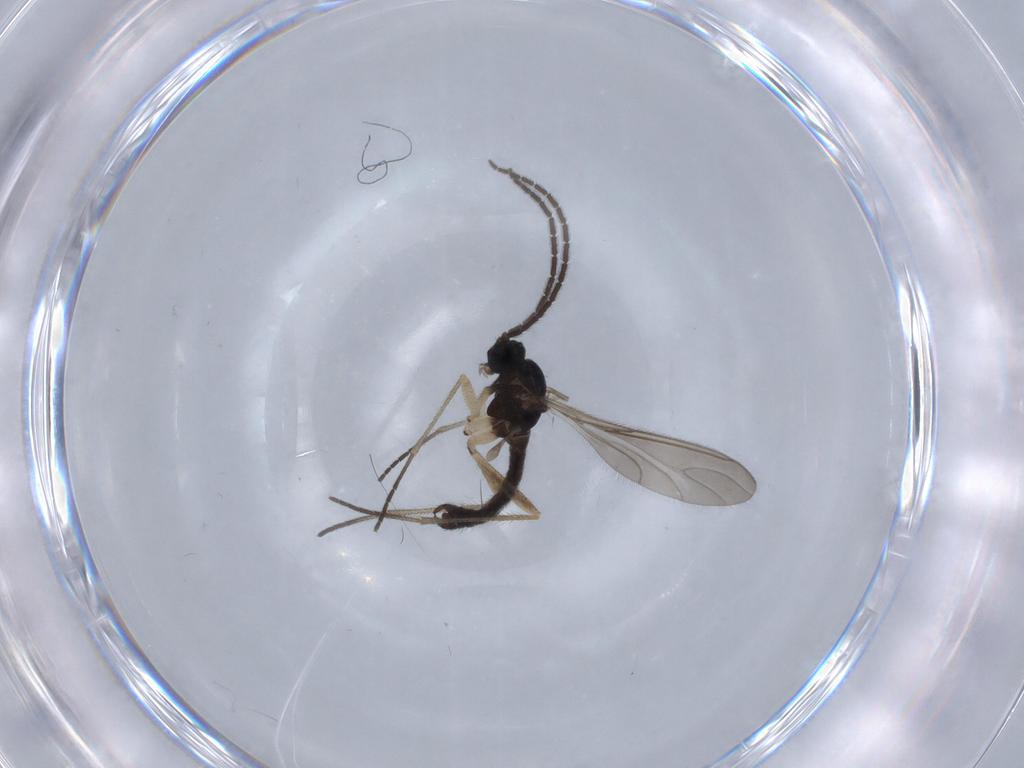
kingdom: Animalia
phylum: Arthropoda
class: Insecta
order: Diptera
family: Sciaridae
